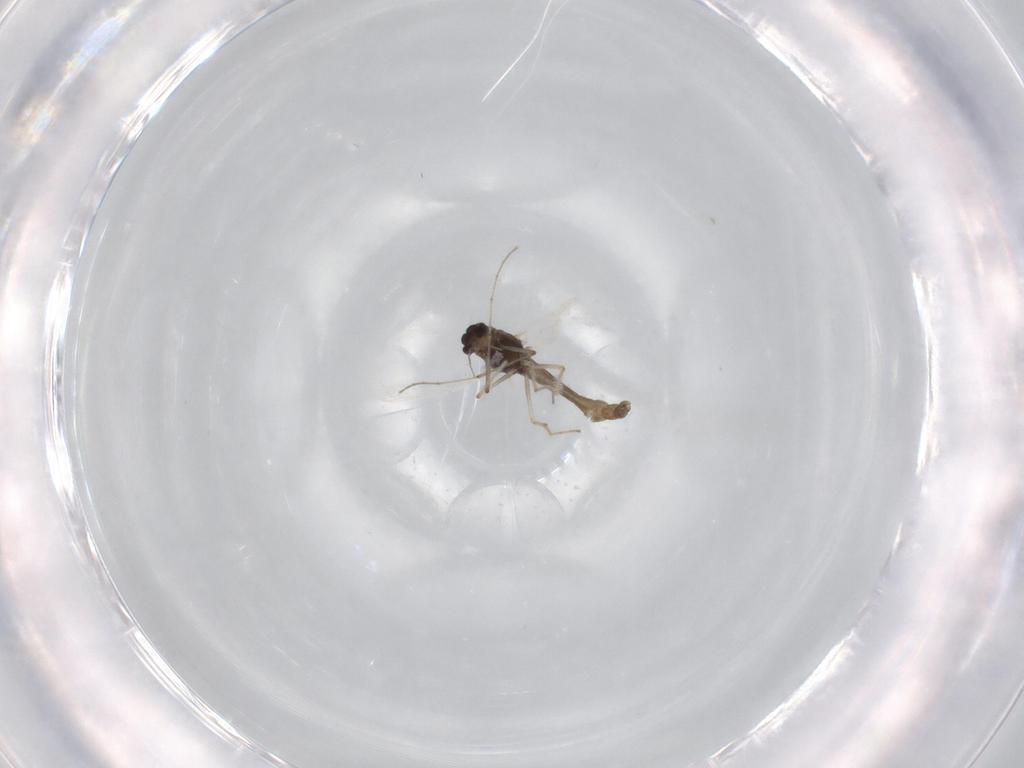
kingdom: Animalia
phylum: Arthropoda
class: Insecta
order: Diptera
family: Chironomidae
